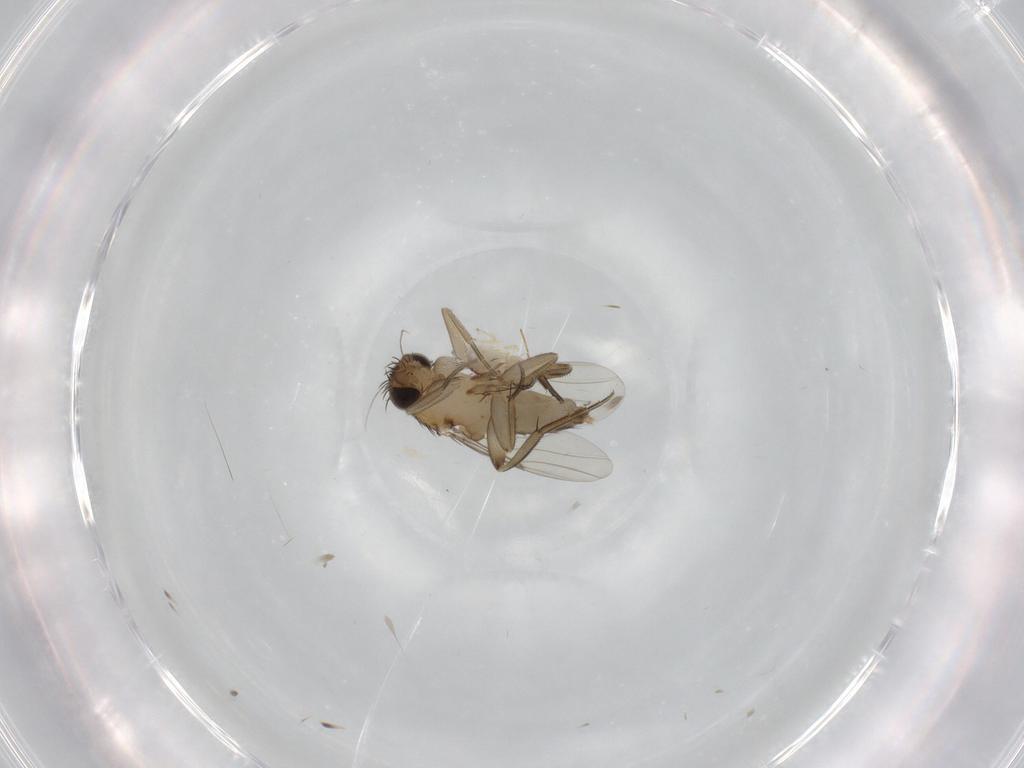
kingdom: Animalia
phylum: Arthropoda
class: Insecta
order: Diptera
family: Phoridae
